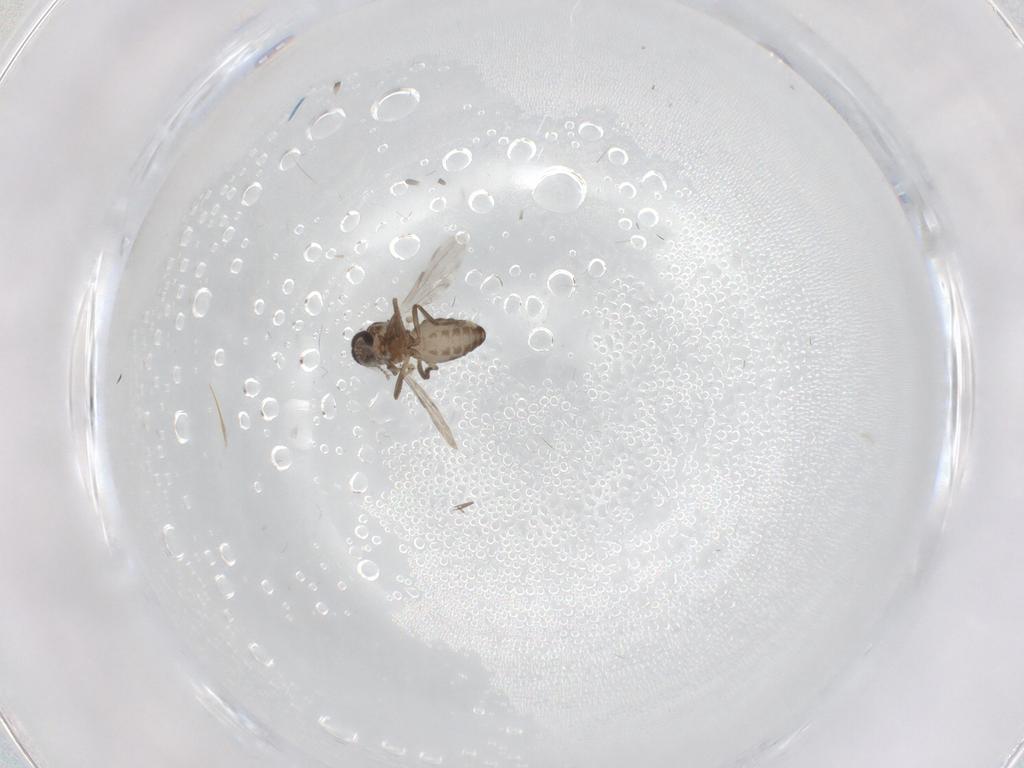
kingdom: Animalia
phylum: Arthropoda
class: Insecta
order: Diptera
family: Ceratopogonidae
